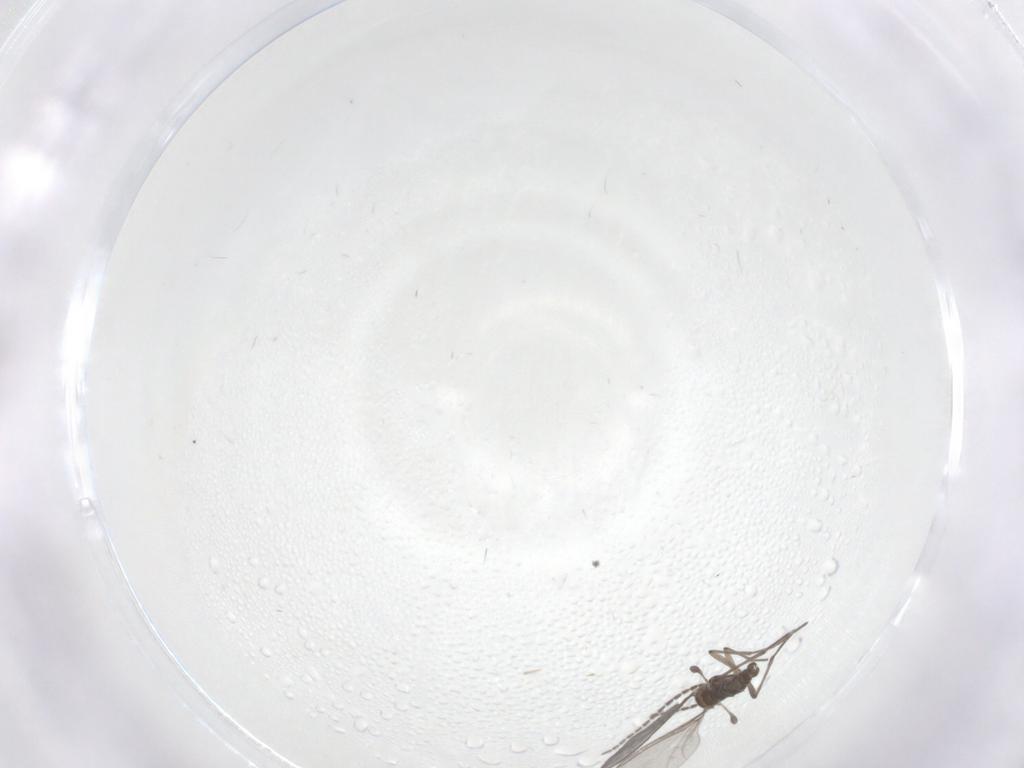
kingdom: Animalia
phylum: Arthropoda
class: Insecta
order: Diptera
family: Sciaridae
